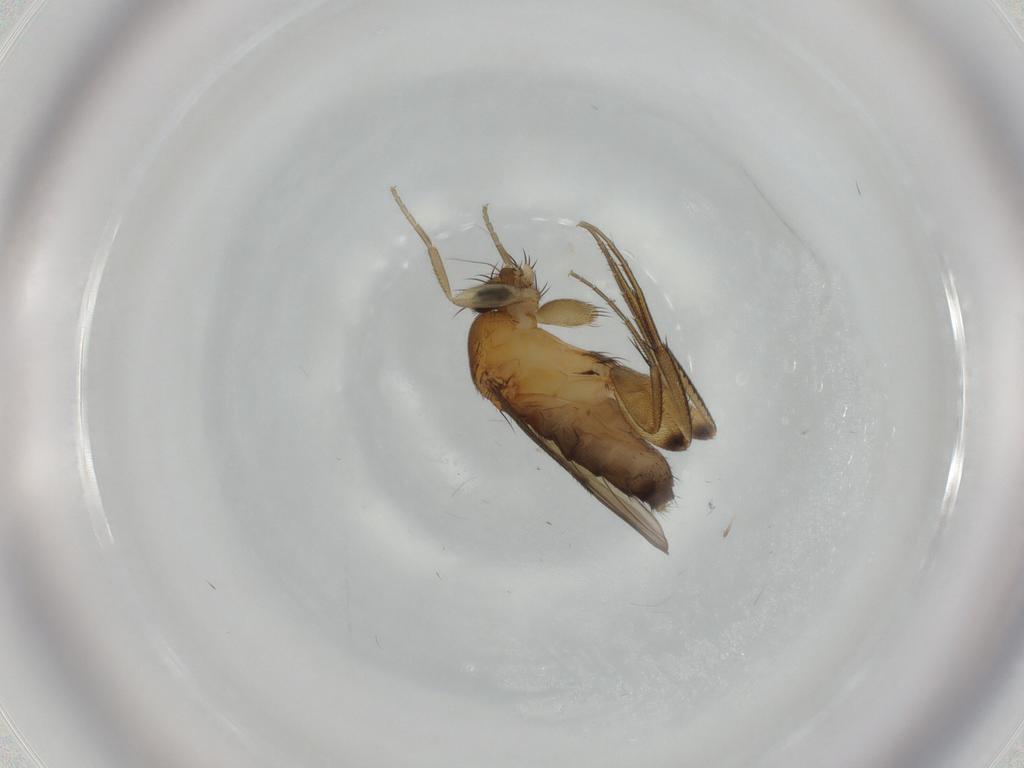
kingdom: Animalia
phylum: Arthropoda
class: Insecta
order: Diptera
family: Phoridae
